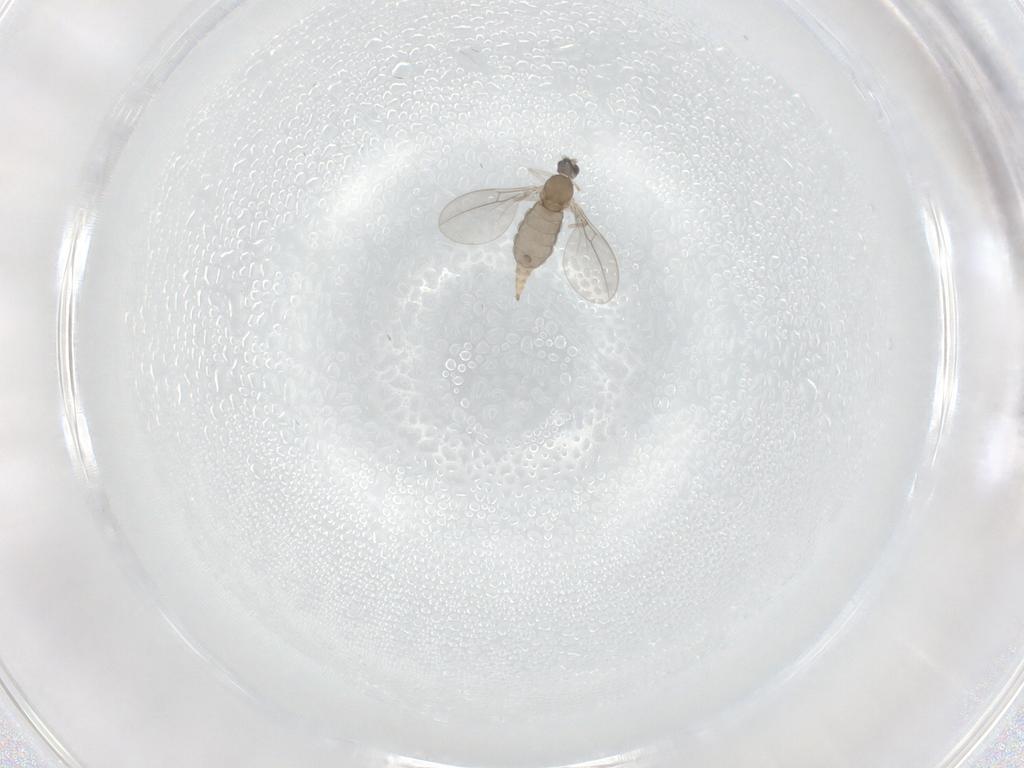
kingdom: Animalia
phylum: Arthropoda
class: Insecta
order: Diptera
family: Cecidomyiidae
